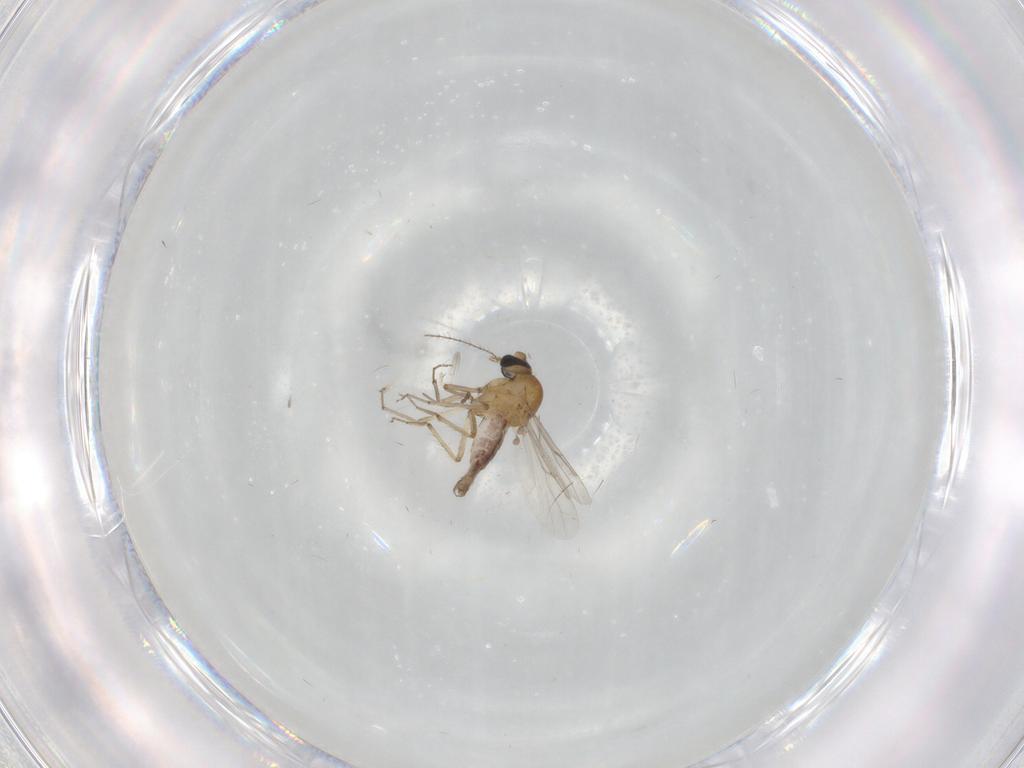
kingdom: Animalia
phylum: Arthropoda
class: Insecta
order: Diptera
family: Ceratopogonidae
